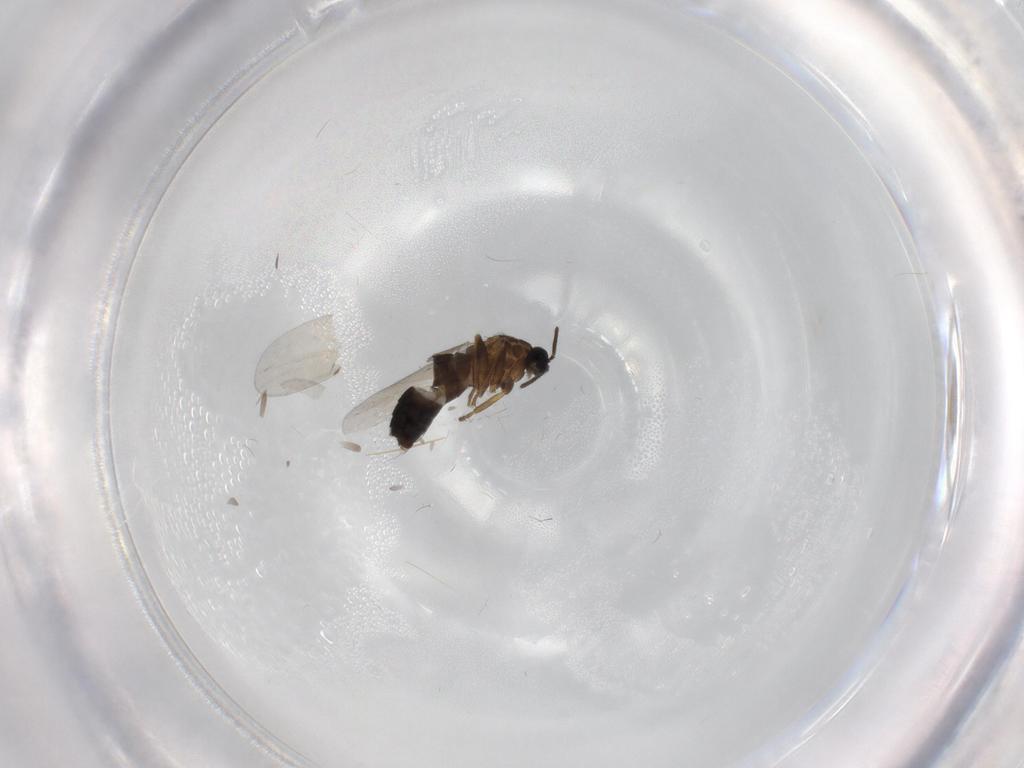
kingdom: Animalia
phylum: Arthropoda
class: Insecta
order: Diptera
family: Scatopsidae
